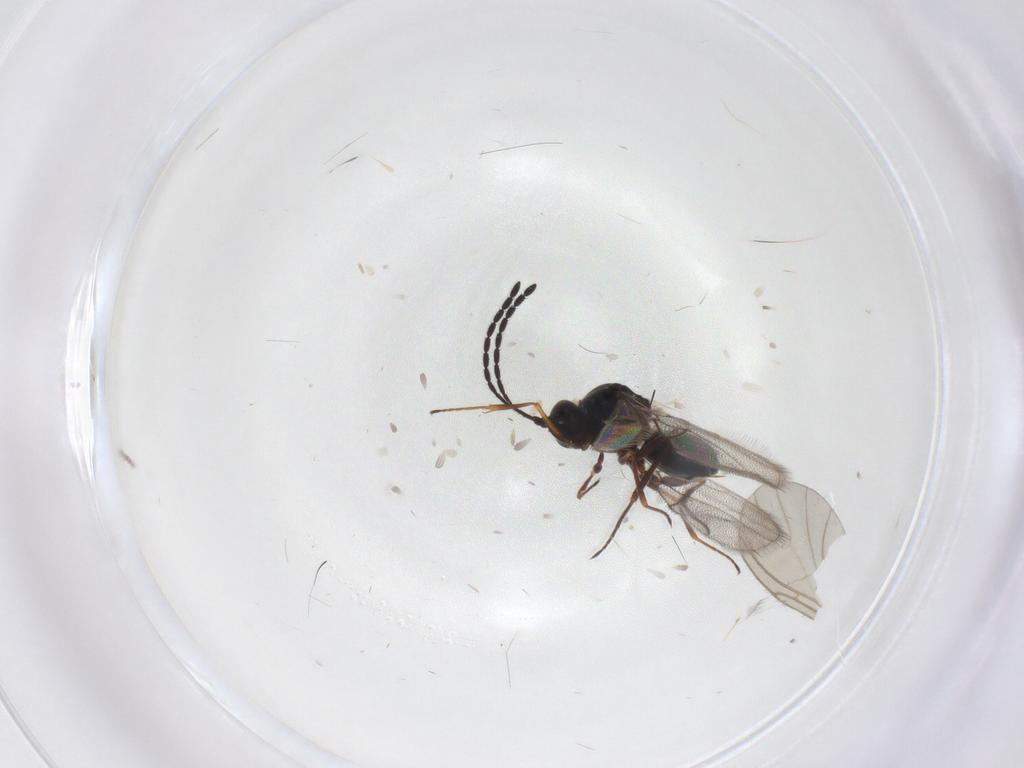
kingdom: Animalia
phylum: Arthropoda
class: Insecta
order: Hymenoptera
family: Figitidae
